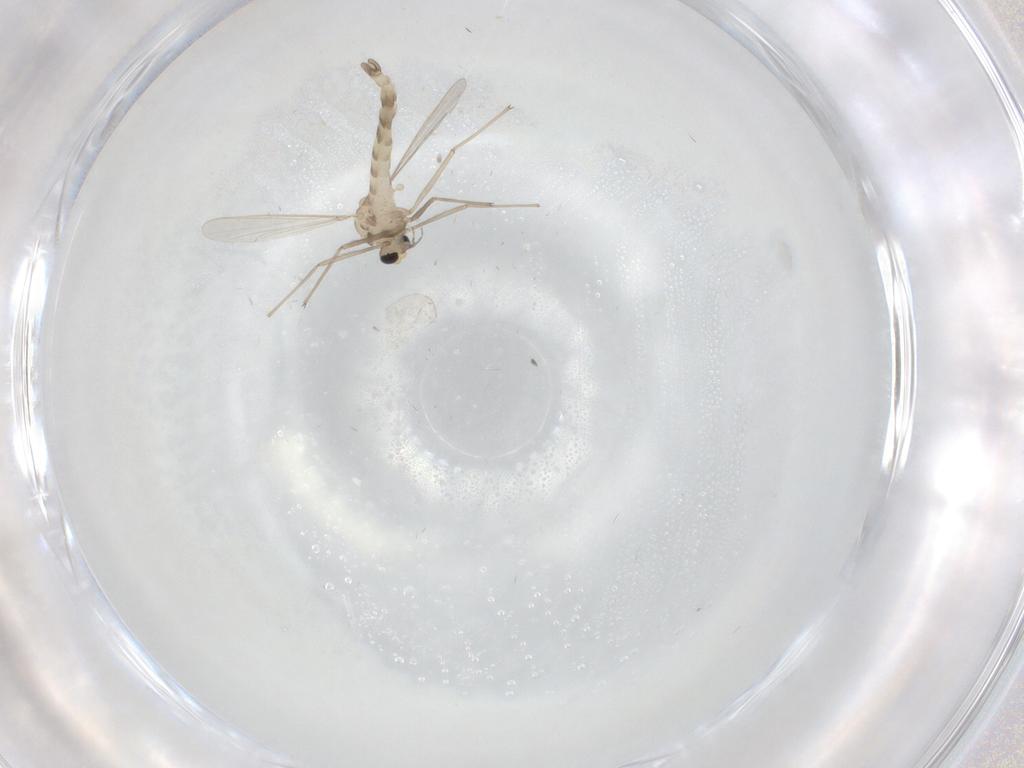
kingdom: Animalia
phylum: Arthropoda
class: Insecta
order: Diptera
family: Chironomidae
